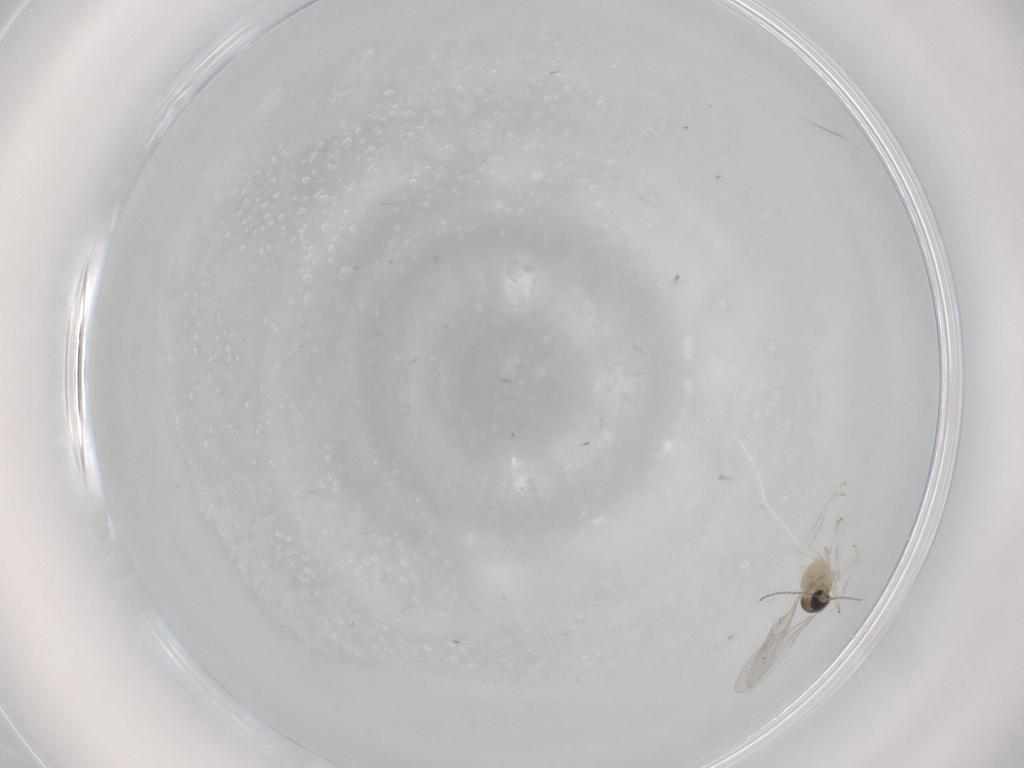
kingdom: Animalia
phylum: Arthropoda
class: Insecta
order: Diptera
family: Cecidomyiidae
